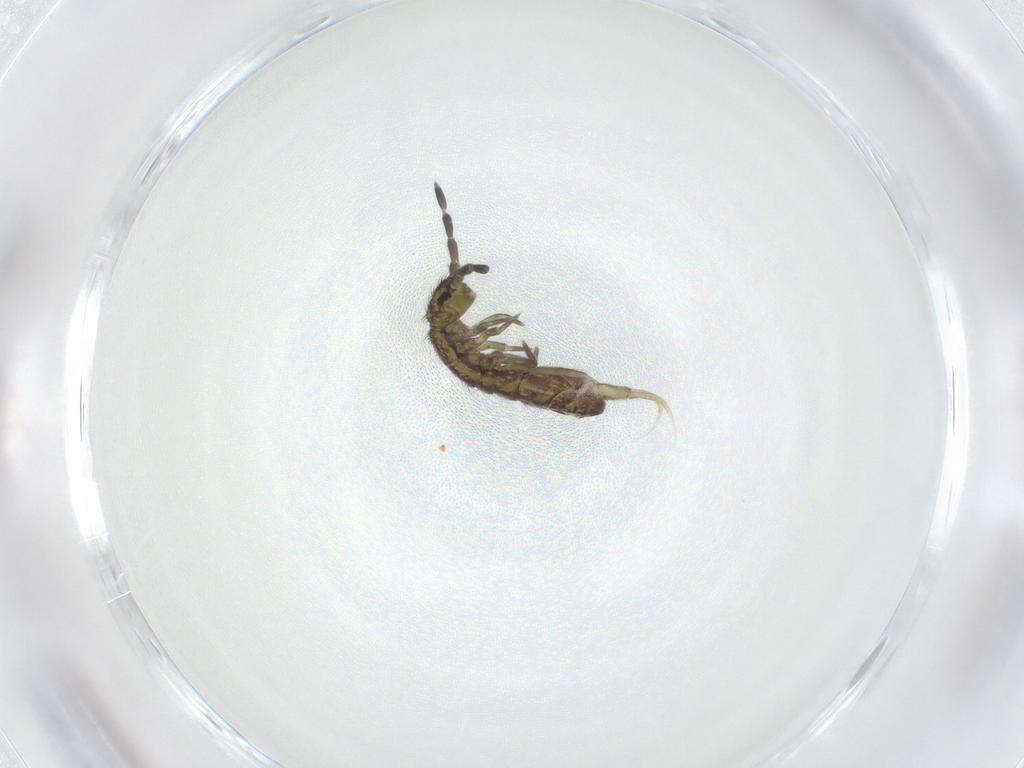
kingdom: Animalia
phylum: Arthropoda
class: Collembola
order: Entomobryomorpha
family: Isotomidae
